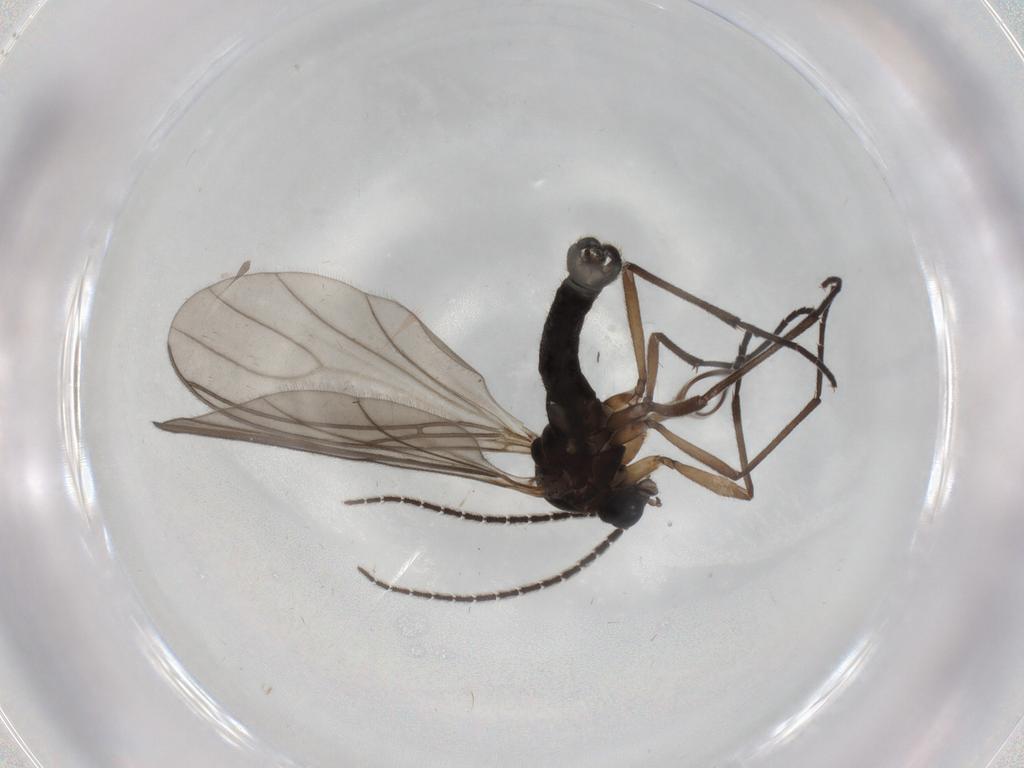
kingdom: Animalia
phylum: Arthropoda
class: Insecta
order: Diptera
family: Sciaridae
